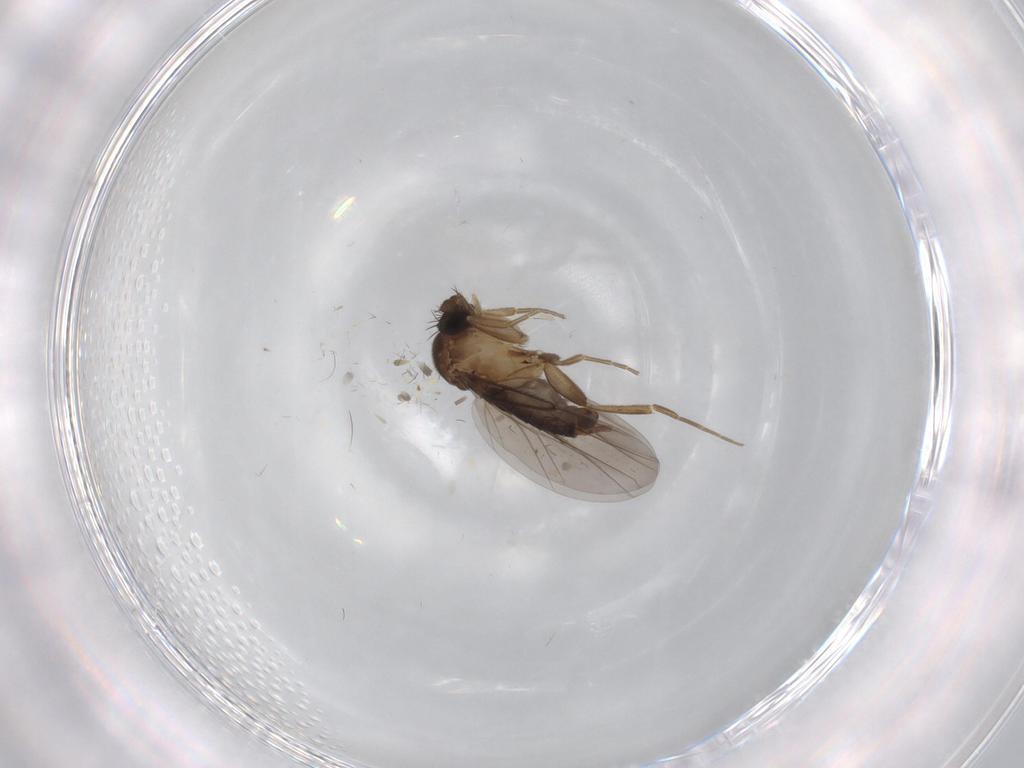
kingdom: Animalia
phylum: Arthropoda
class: Insecta
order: Diptera
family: Phoridae
